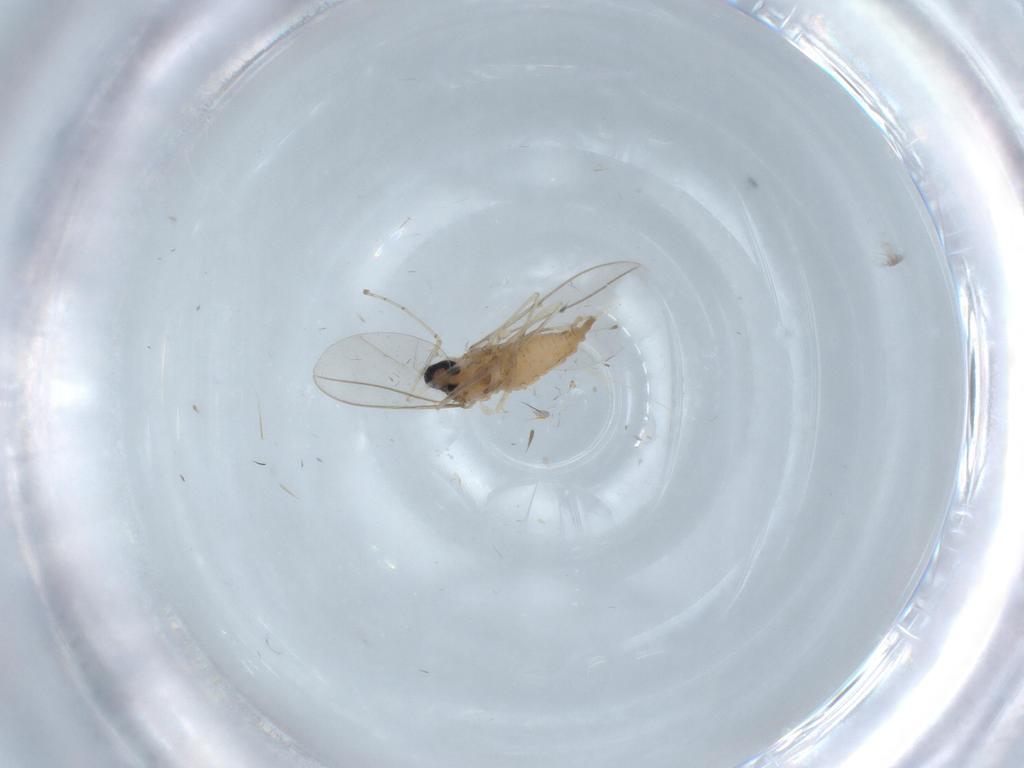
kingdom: Animalia
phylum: Arthropoda
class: Insecta
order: Diptera
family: Cecidomyiidae
